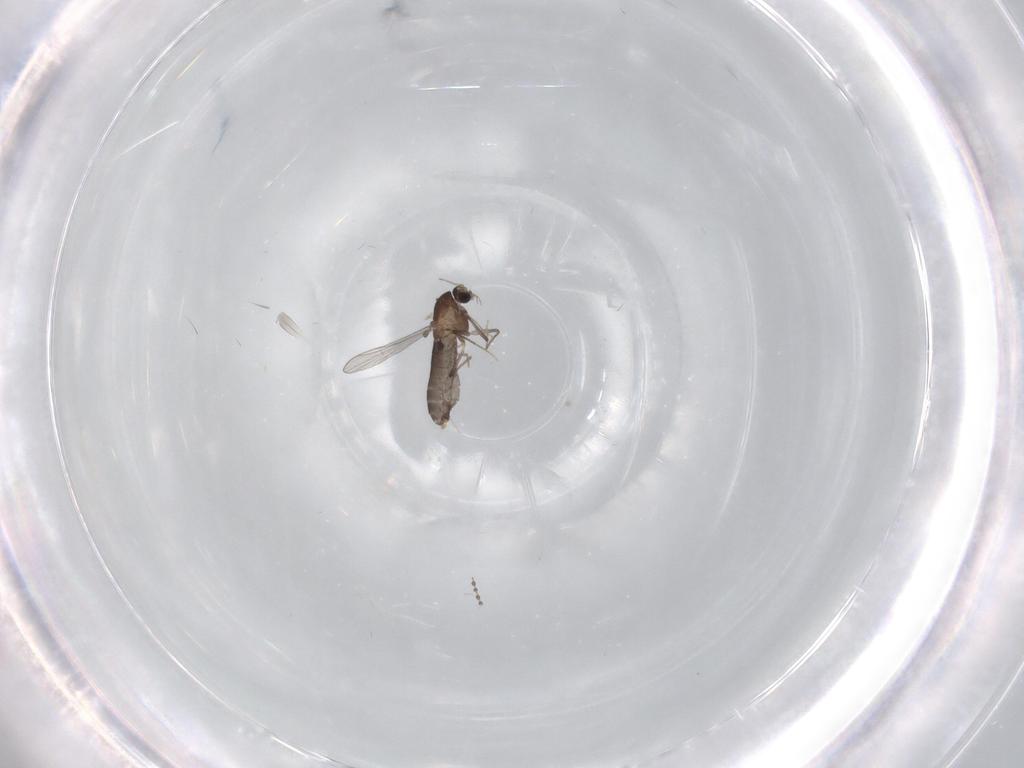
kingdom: Animalia
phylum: Arthropoda
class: Insecta
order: Diptera
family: Chironomidae
